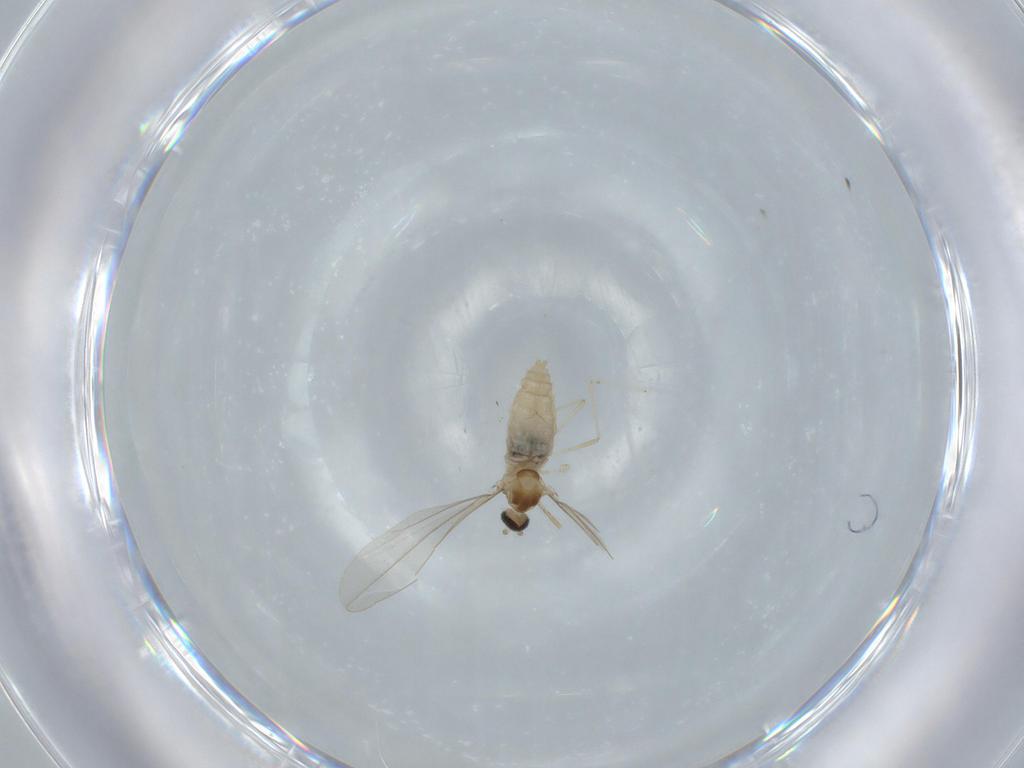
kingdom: Animalia
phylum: Arthropoda
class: Insecta
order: Diptera
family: Cecidomyiidae
